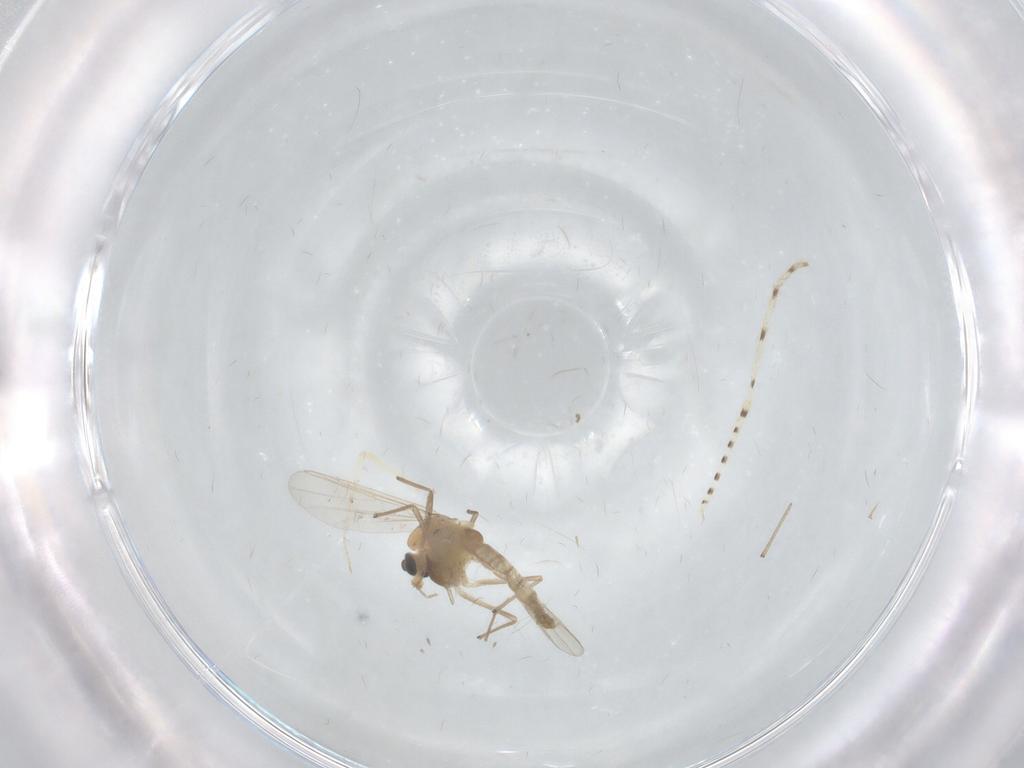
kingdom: Animalia
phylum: Arthropoda
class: Insecta
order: Diptera
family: Chironomidae
